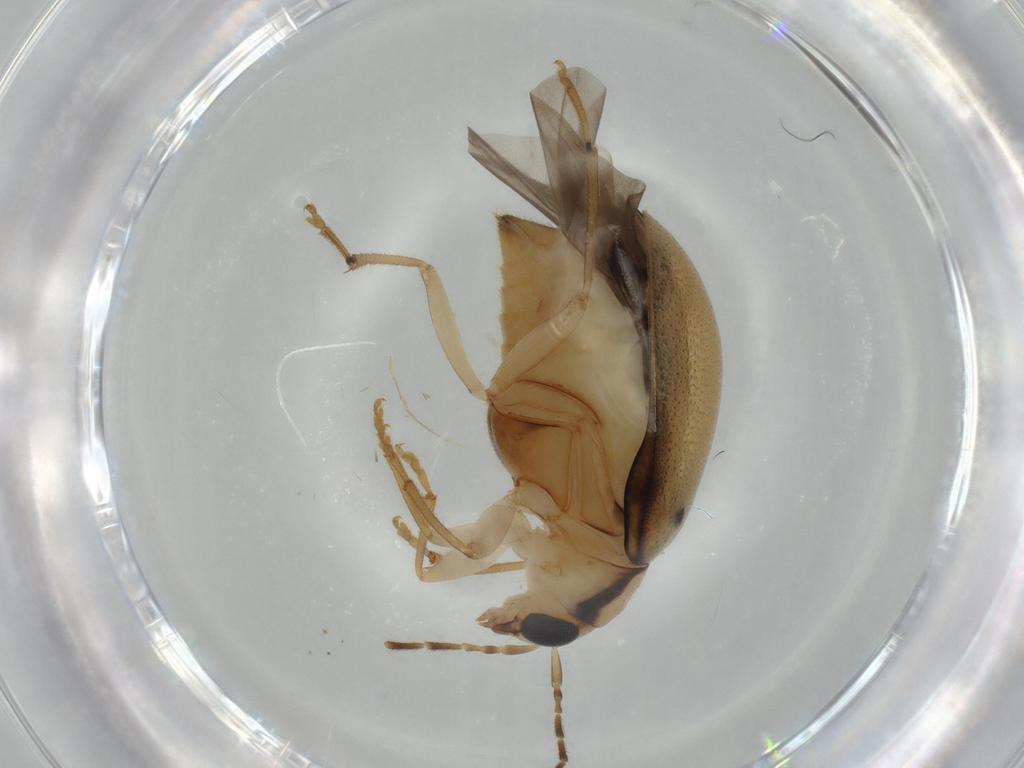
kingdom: Animalia
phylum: Arthropoda
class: Insecta
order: Coleoptera
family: Chrysomelidae
